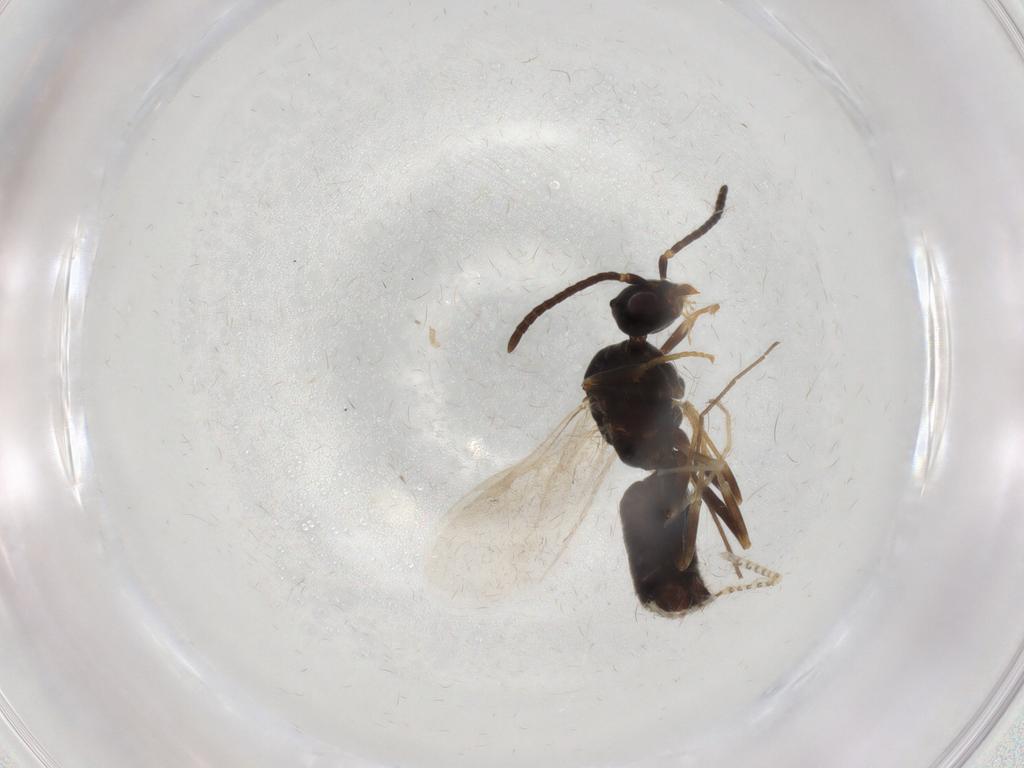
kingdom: Animalia
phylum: Arthropoda
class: Insecta
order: Hymenoptera
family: Formicidae
